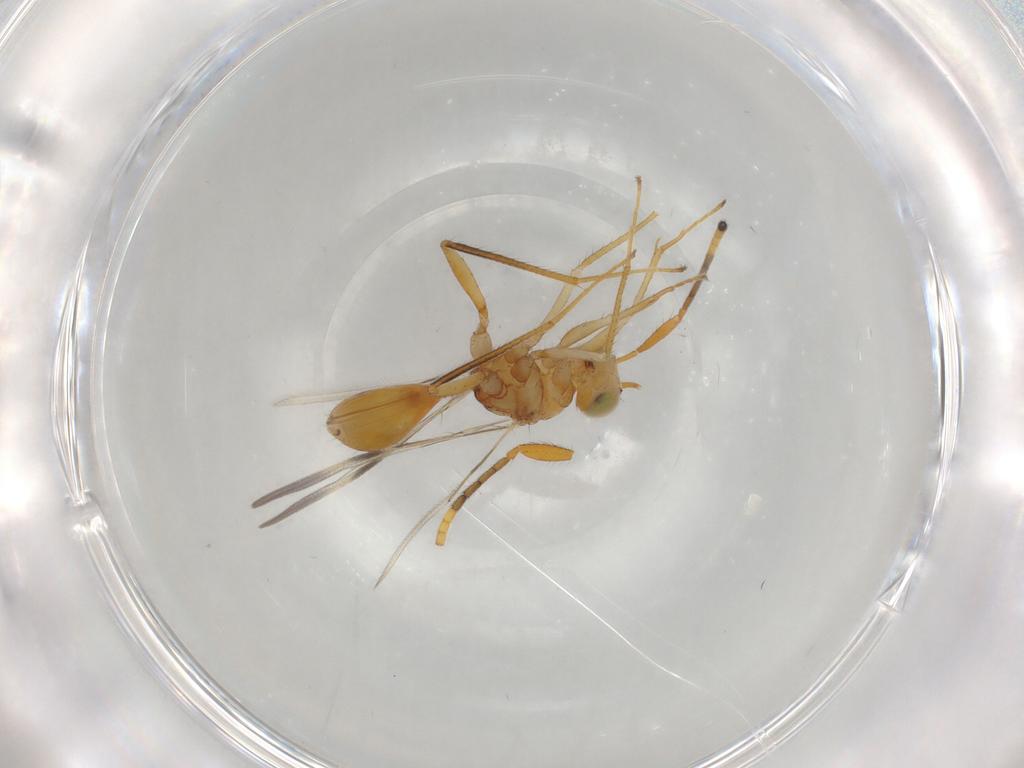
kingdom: Animalia
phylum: Arthropoda
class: Insecta
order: Hymenoptera
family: Mymaridae
